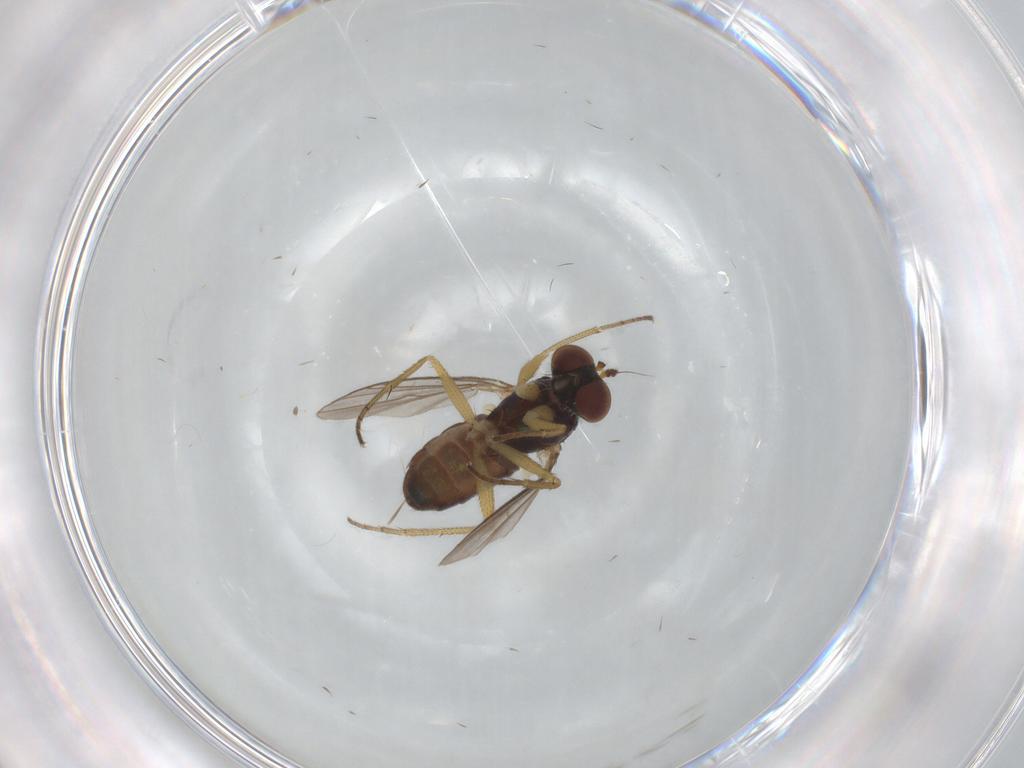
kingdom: Animalia
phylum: Arthropoda
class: Insecta
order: Diptera
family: Dolichopodidae
